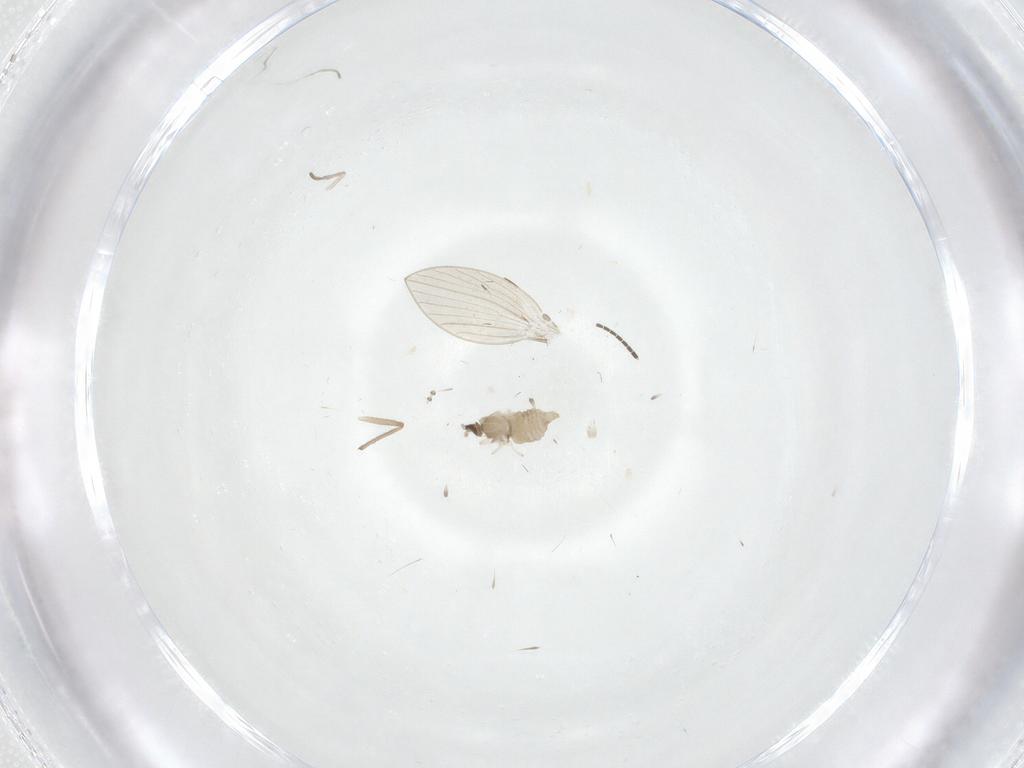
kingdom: Animalia
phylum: Arthropoda
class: Insecta
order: Diptera
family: Cecidomyiidae
